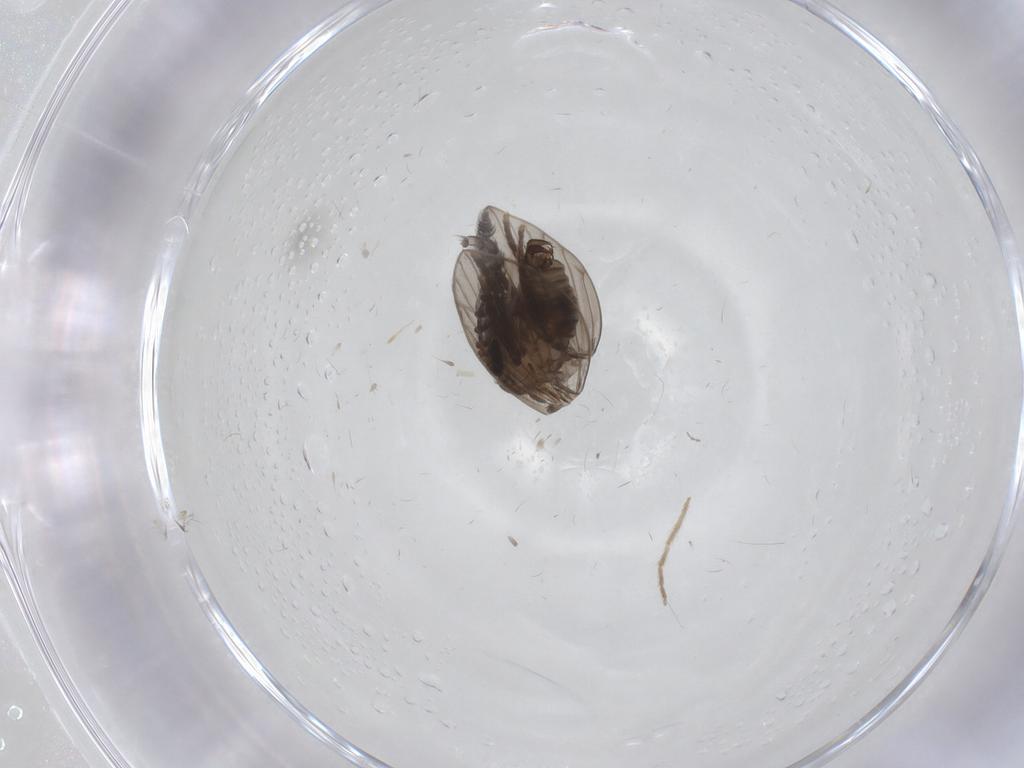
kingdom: Animalia
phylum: Arthropoda
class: Insecta
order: Diptera
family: Psychodidae
